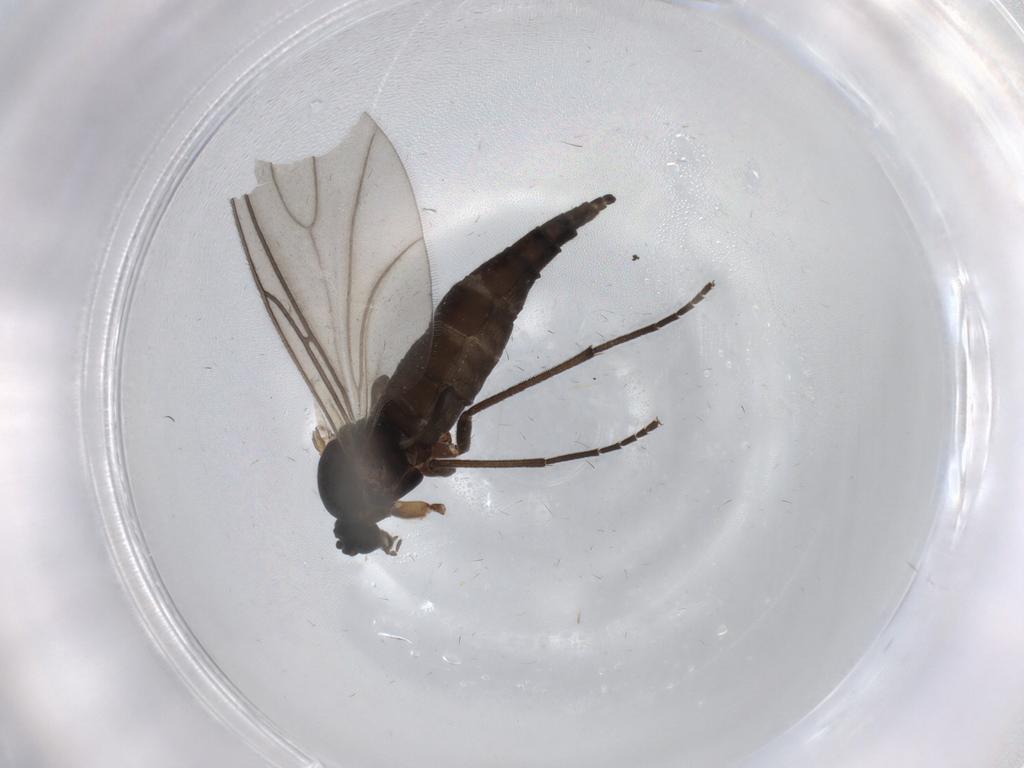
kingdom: Animalia
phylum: Arthropoda
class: Insecta
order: Diptera
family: Sciaridae
